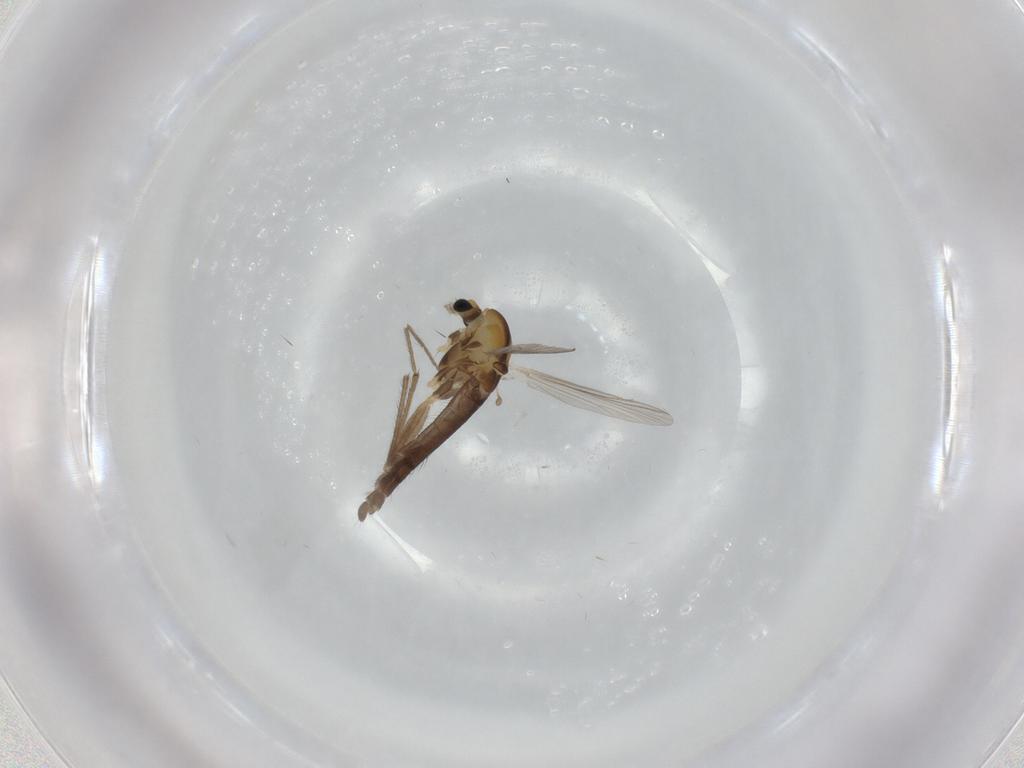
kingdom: Animalia
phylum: Arthropoda
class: Insecta
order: Diptera
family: Chironomidae
